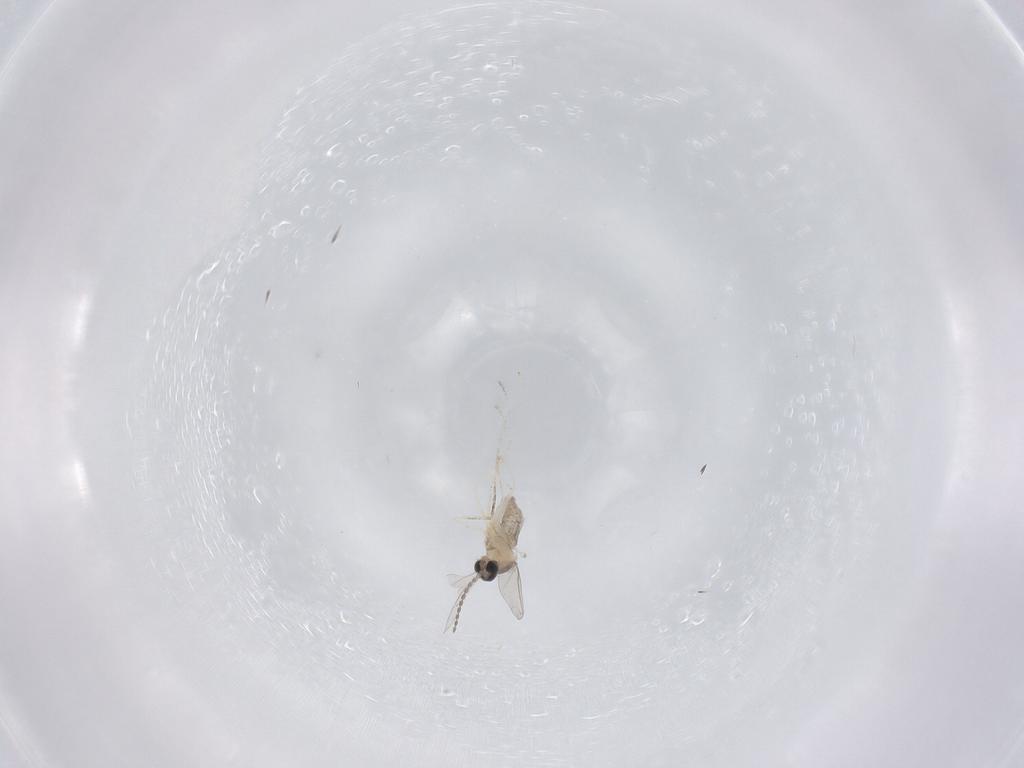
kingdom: Animalia
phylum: Arthropoda
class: Insecta
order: Diptera
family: Cecidomyiidae
